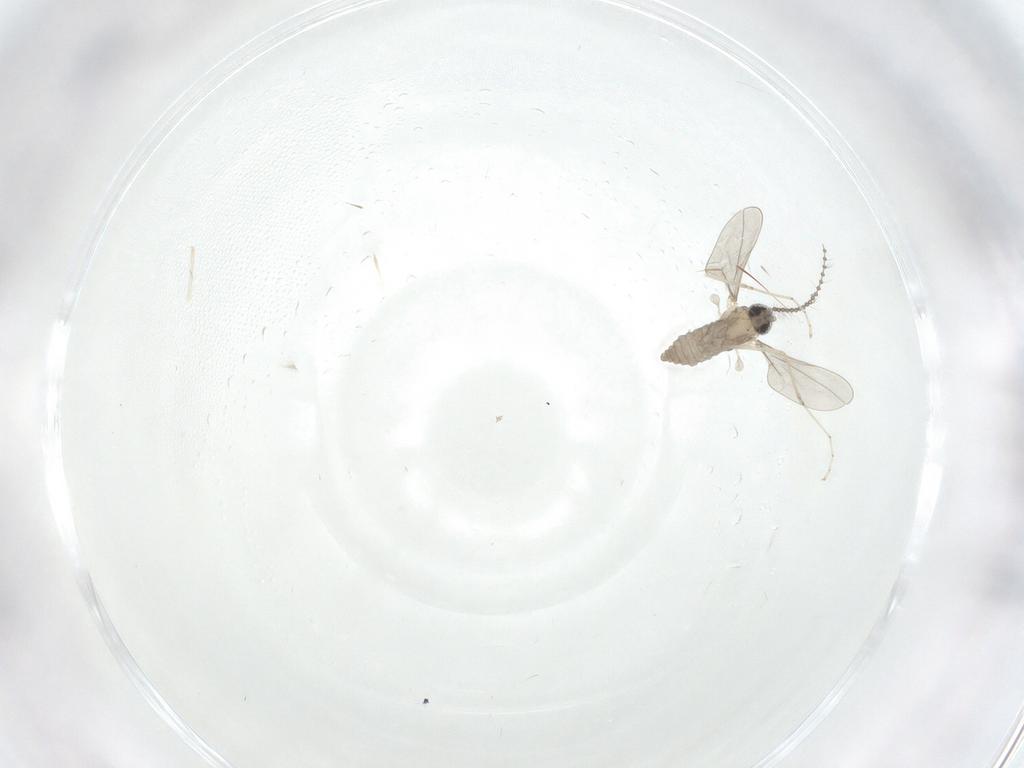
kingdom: Animalia
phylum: Arthropoda
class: Insecta
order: Diptera
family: Cecidomyiidae
